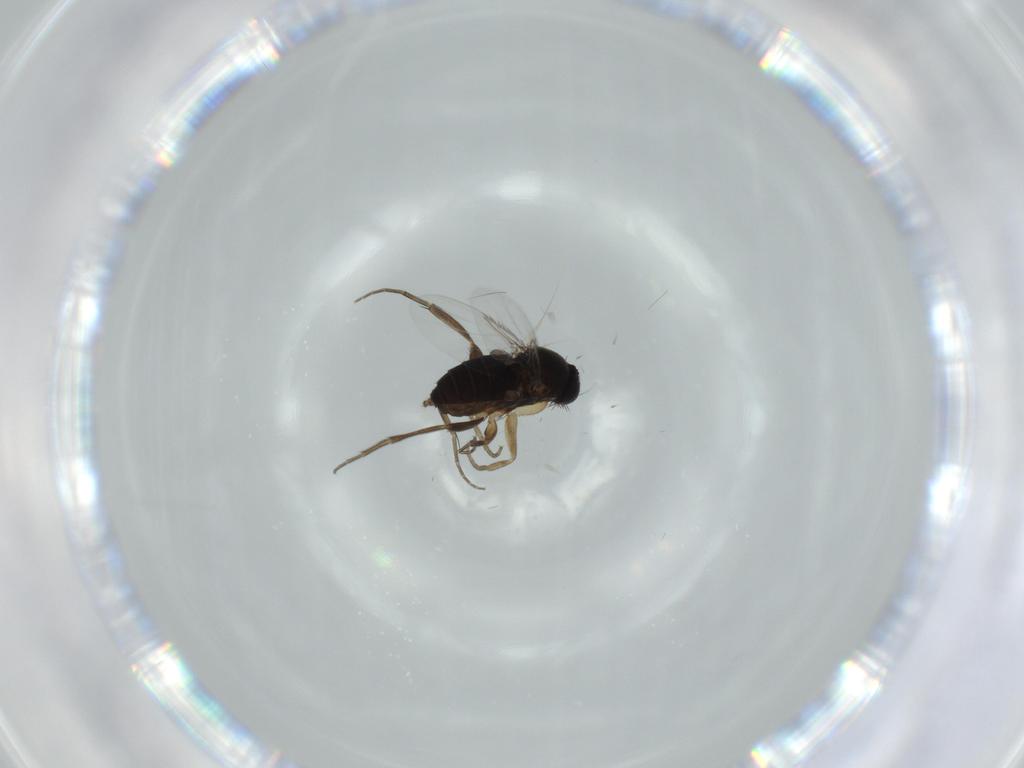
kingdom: Animalia
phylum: Arthropoda
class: Insecta
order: Diptera
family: Phoridae
